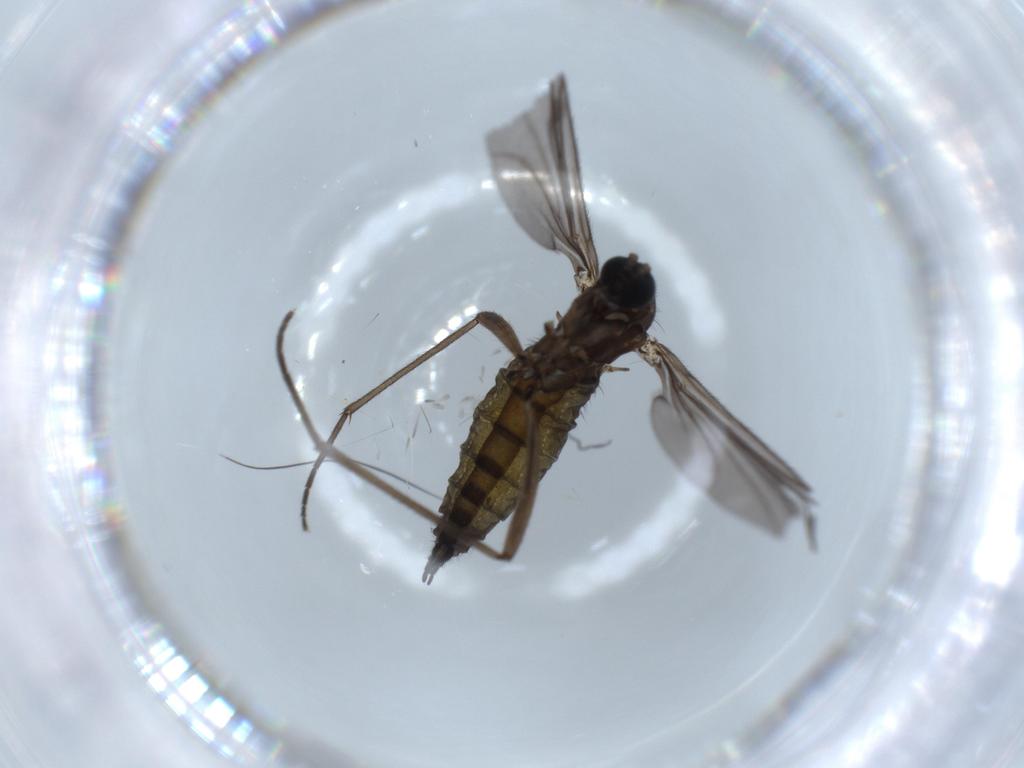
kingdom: Animalia
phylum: Arthropoda
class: Insecta
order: Diptera
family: Sciaridae
